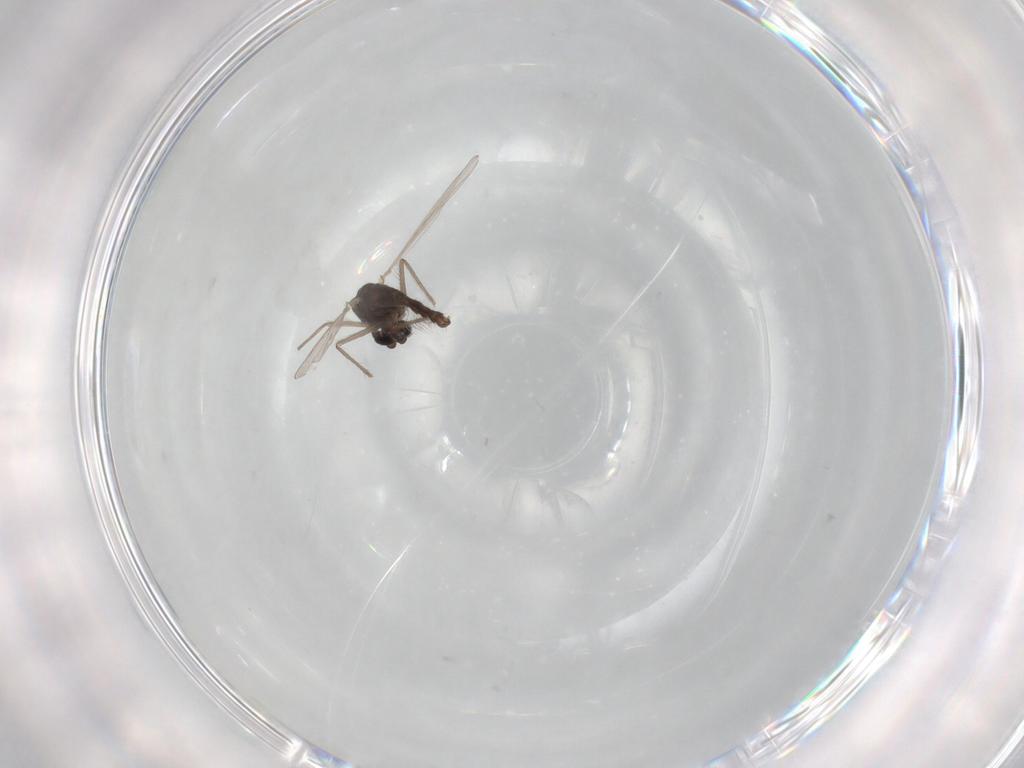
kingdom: Animalia
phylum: Arthropoda
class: Insecta
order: Diptera
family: Chironomidae
